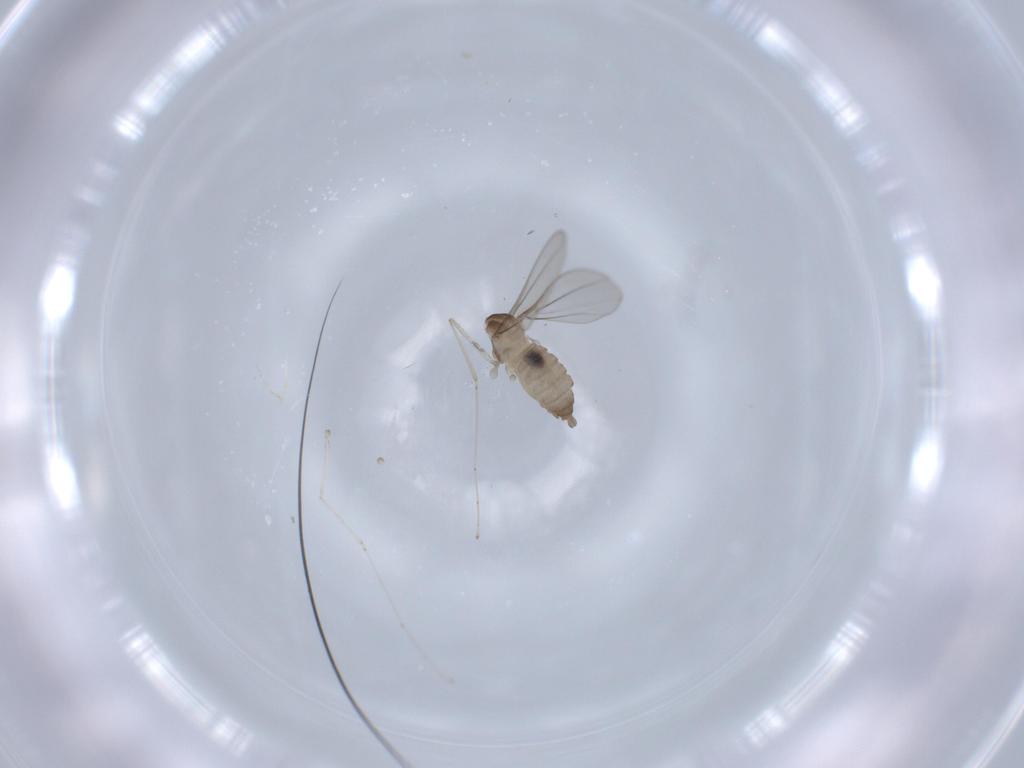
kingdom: Animalia
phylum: Arthropoda
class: Insecta
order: Diptera
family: Cecidomyiidae
